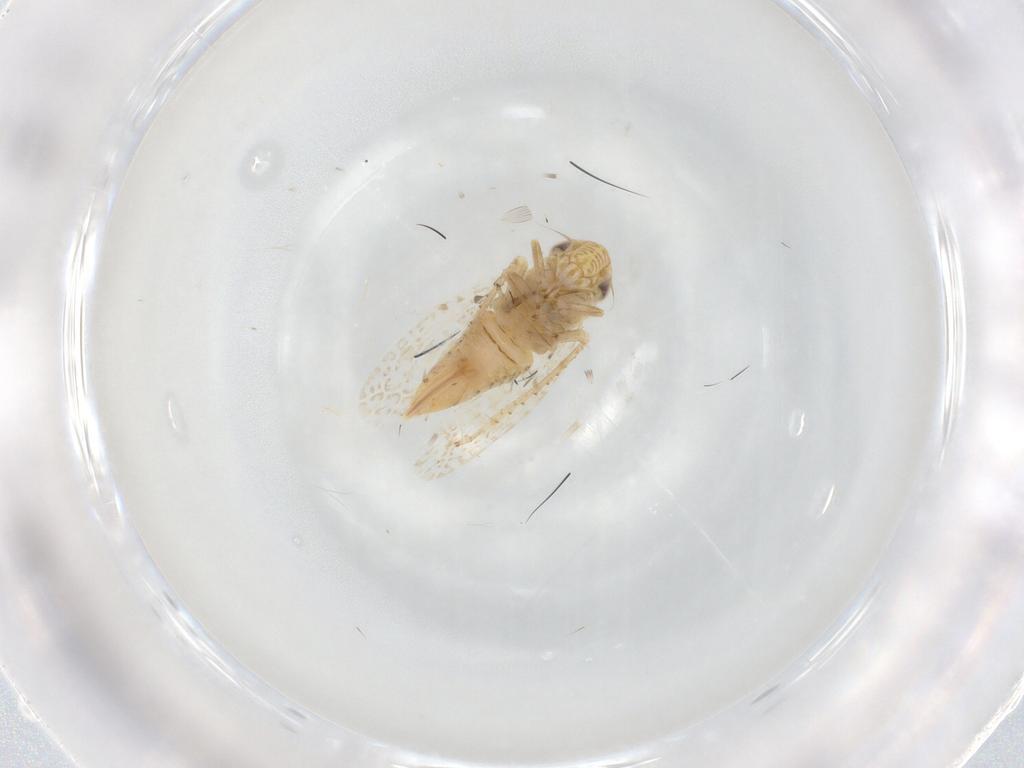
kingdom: Animalia
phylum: Arthropoda
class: Insecta
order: Hemiptera
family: Cicadellidae
